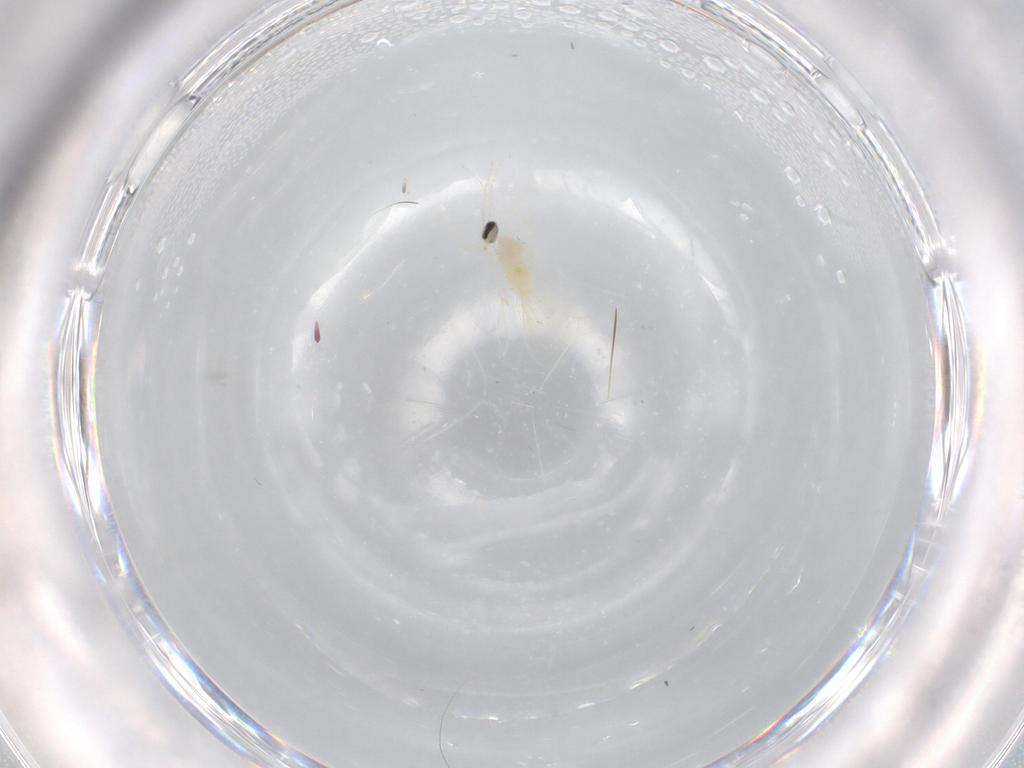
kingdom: Animalia
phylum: Arthropoda
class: Insecta
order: Diptera
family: Cecidomyiidae
